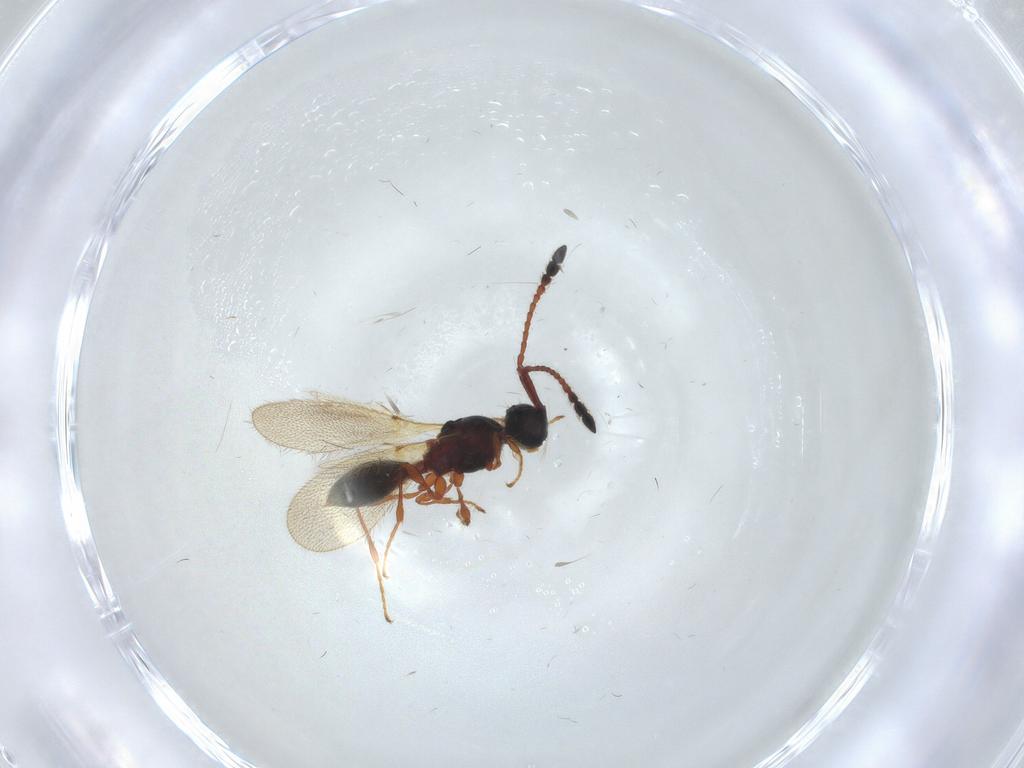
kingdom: Animalia
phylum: Arthropoda
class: Insecta
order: Hymenoptera
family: Diapriidae
